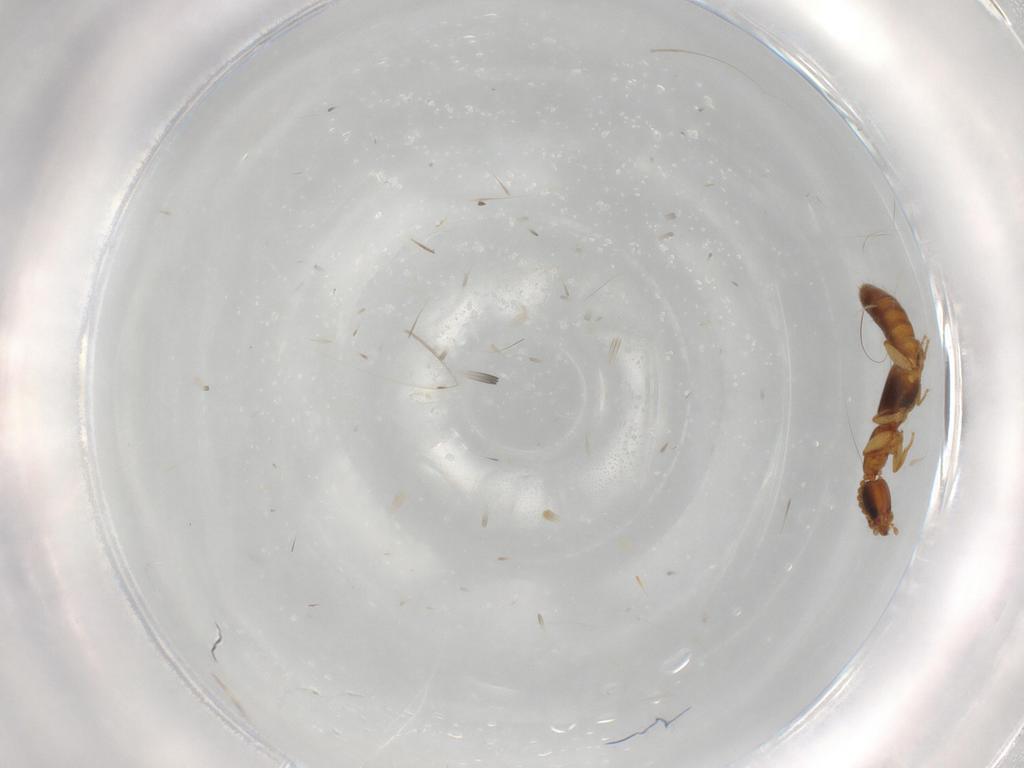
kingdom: Animalia
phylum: Arthropoda
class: Insecta
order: Coleoptera
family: Staphylinidae
